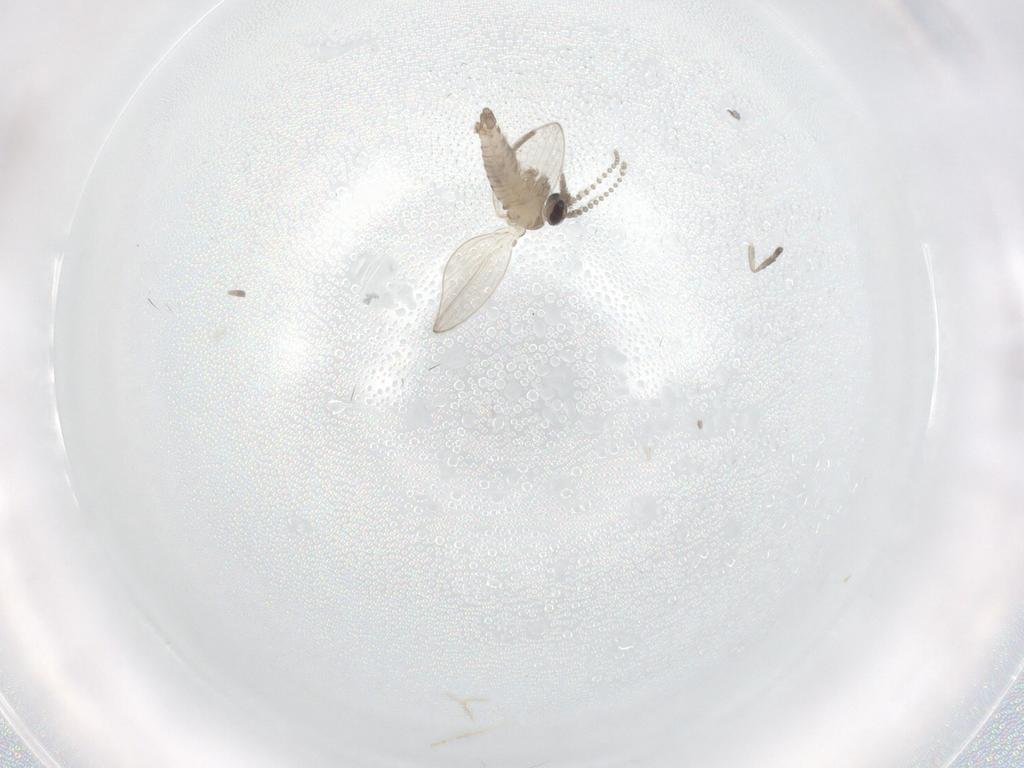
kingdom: Animalia
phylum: Arthropoda
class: Insecta
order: Diptera
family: Cecidomyiidae
